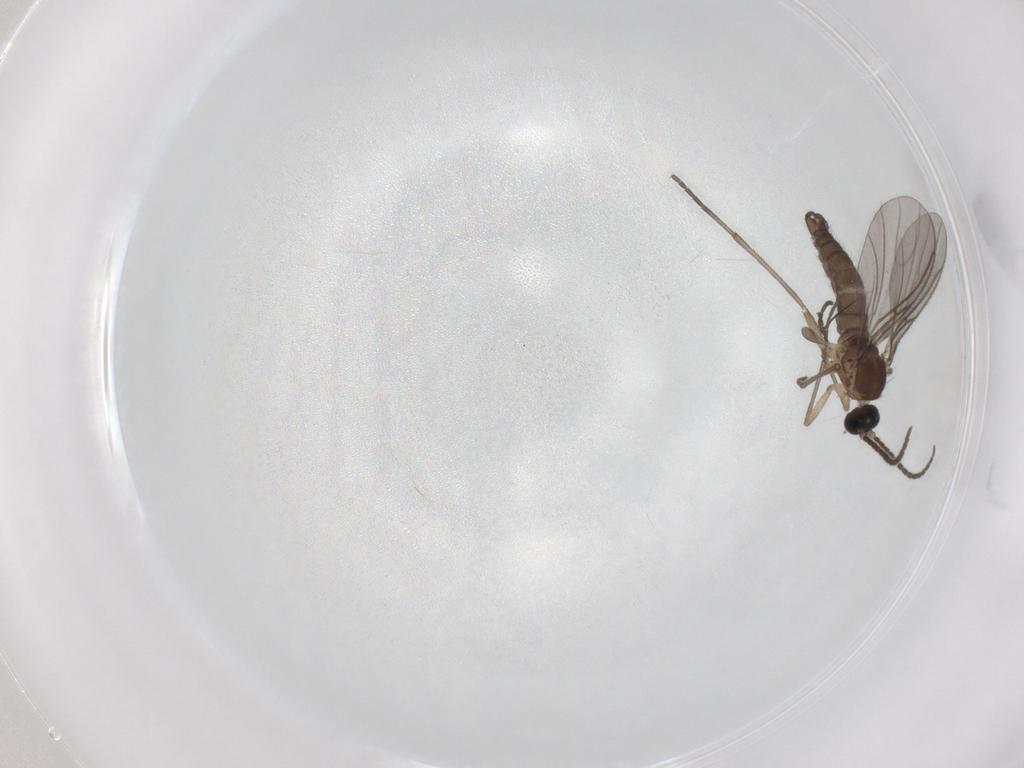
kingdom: Animalia
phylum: Arthropoda
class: Insecta
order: Diptera
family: Sciaridae
